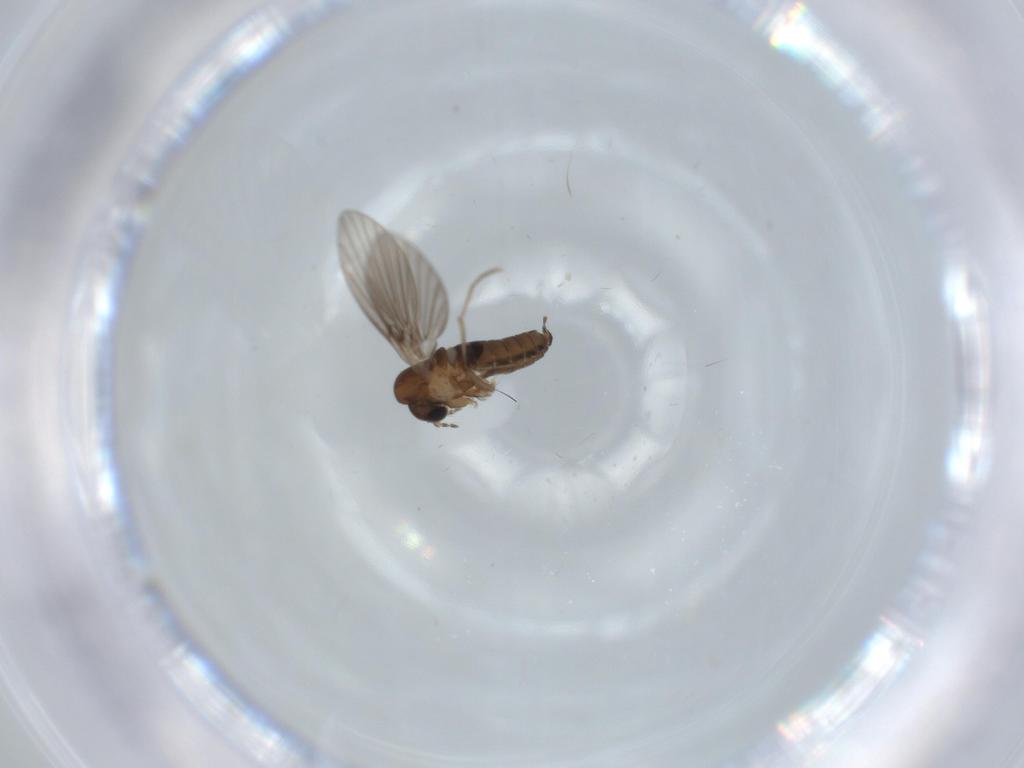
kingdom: Animalia
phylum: Arthropoda
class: Insecta
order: Diptera
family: Psychodidae
